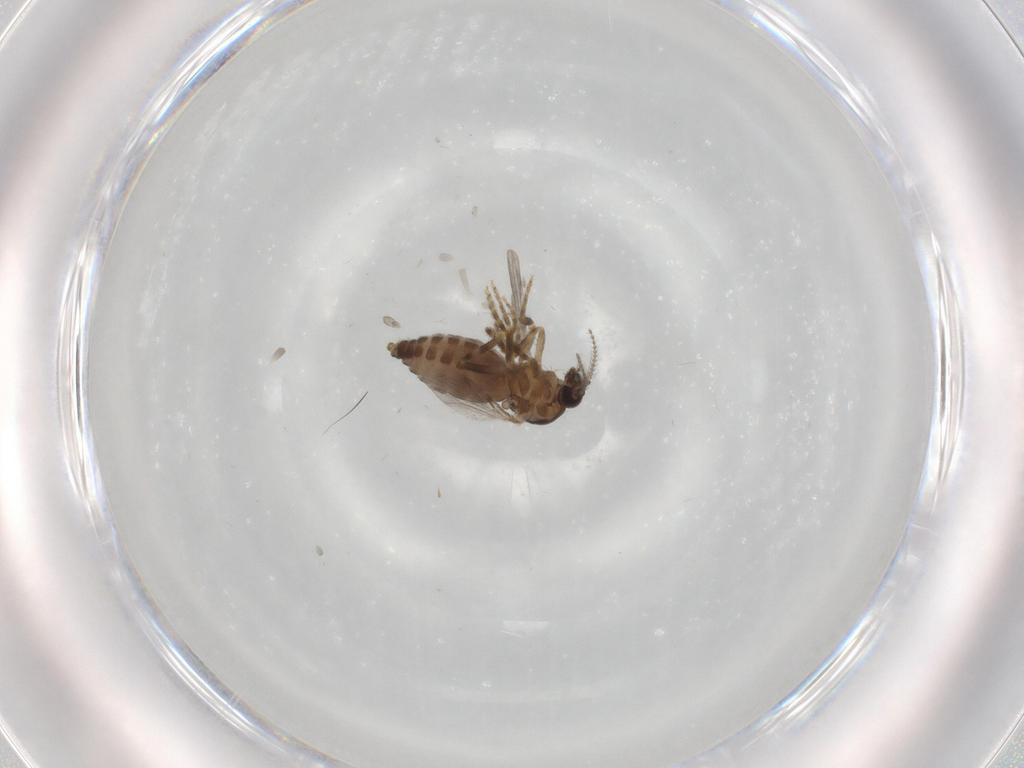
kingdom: Animalia
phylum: Arthropoda
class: Insecta
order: Diptera
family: Ceratopogonidae
